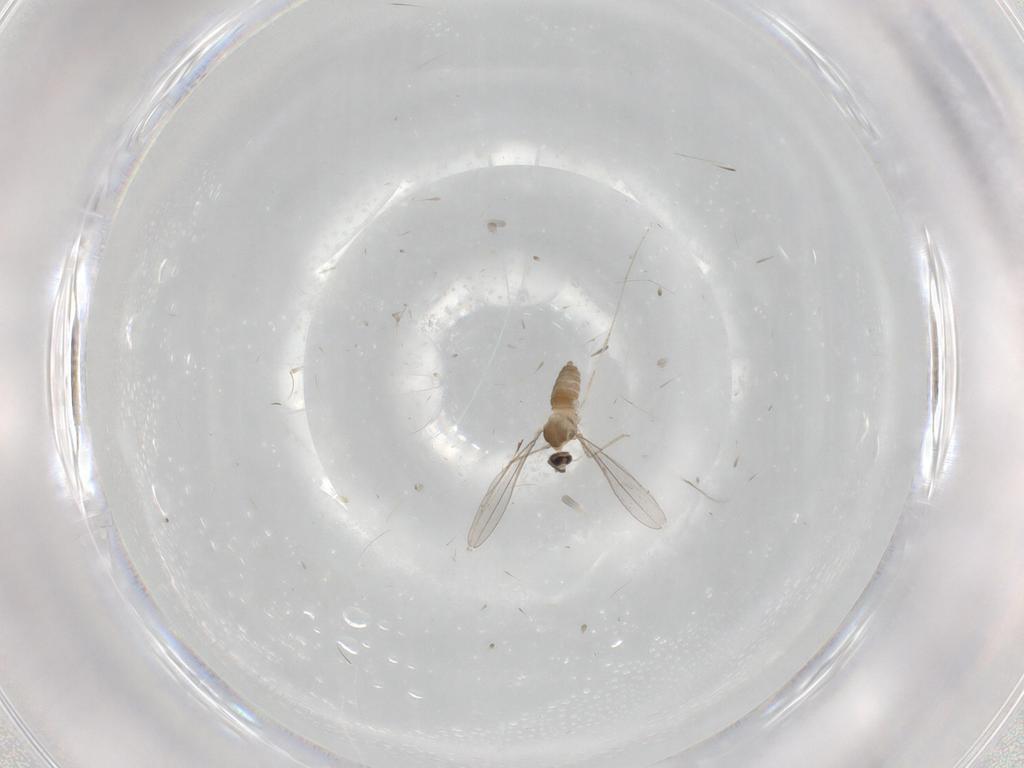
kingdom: Animalia
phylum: Arthropoda
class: Insecta
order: Diptera
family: Cecidomyiidae
